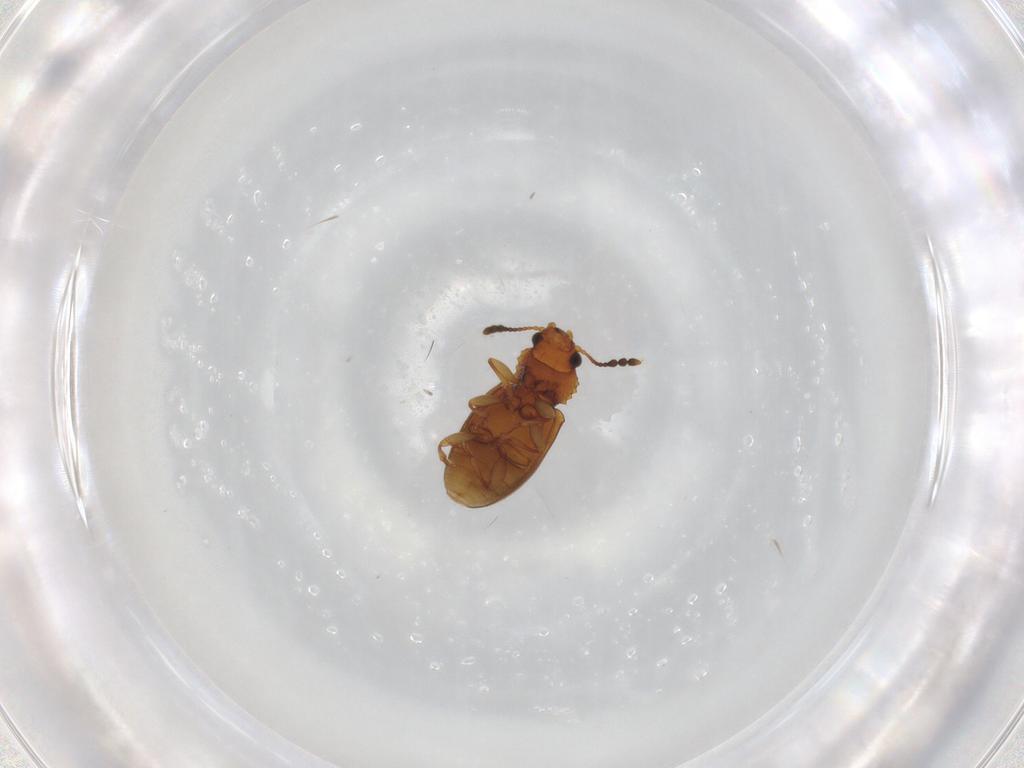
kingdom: Animalia
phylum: Arthropoda
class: Insecta
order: Coleoptera
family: Salpingidae
